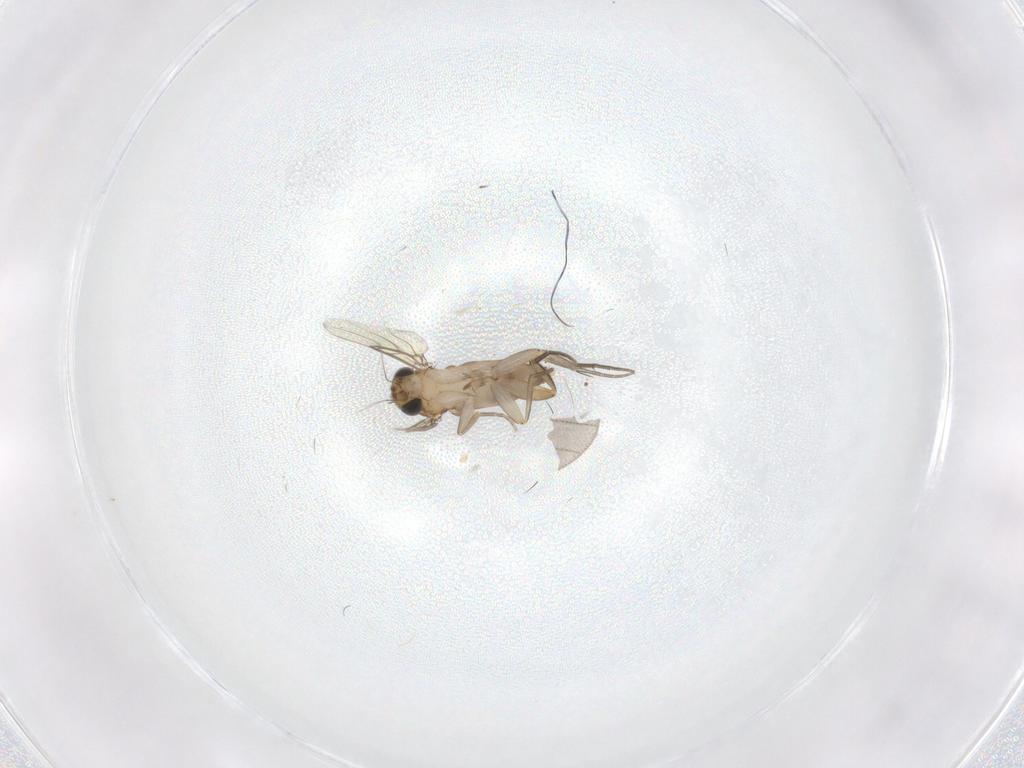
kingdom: Animalia
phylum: Arthropoda
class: Insecta
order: Diptera
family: Phoridae
